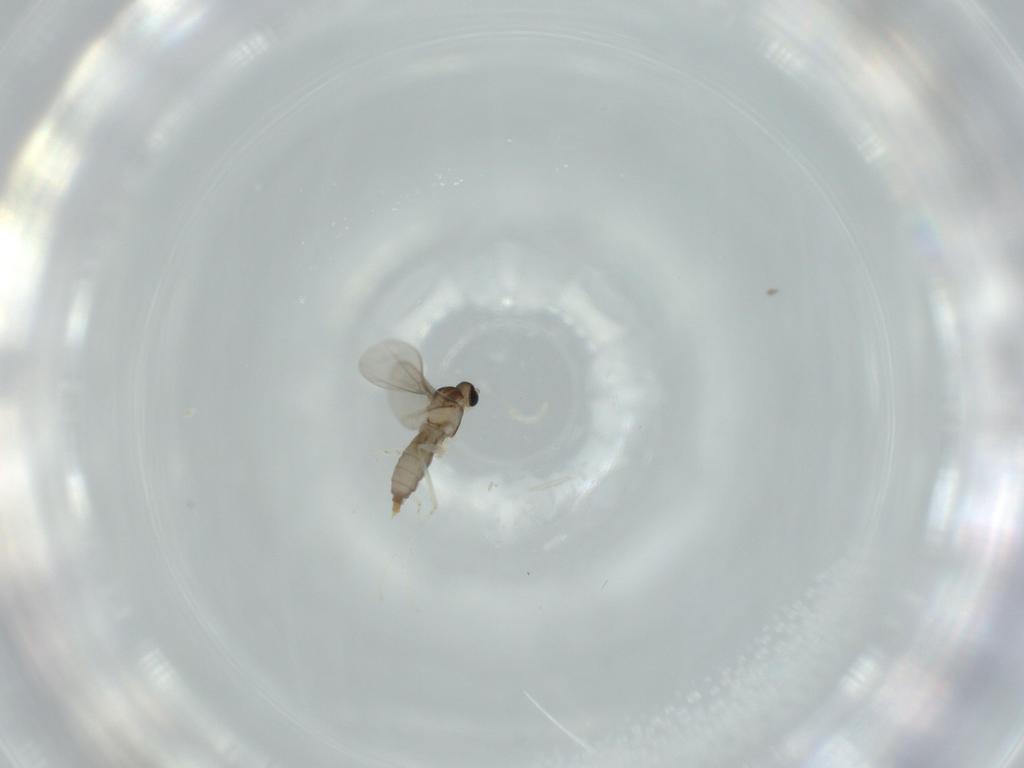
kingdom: Animalia
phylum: Arthropoda
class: Insecta
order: Diptera
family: Dolichopodidae
